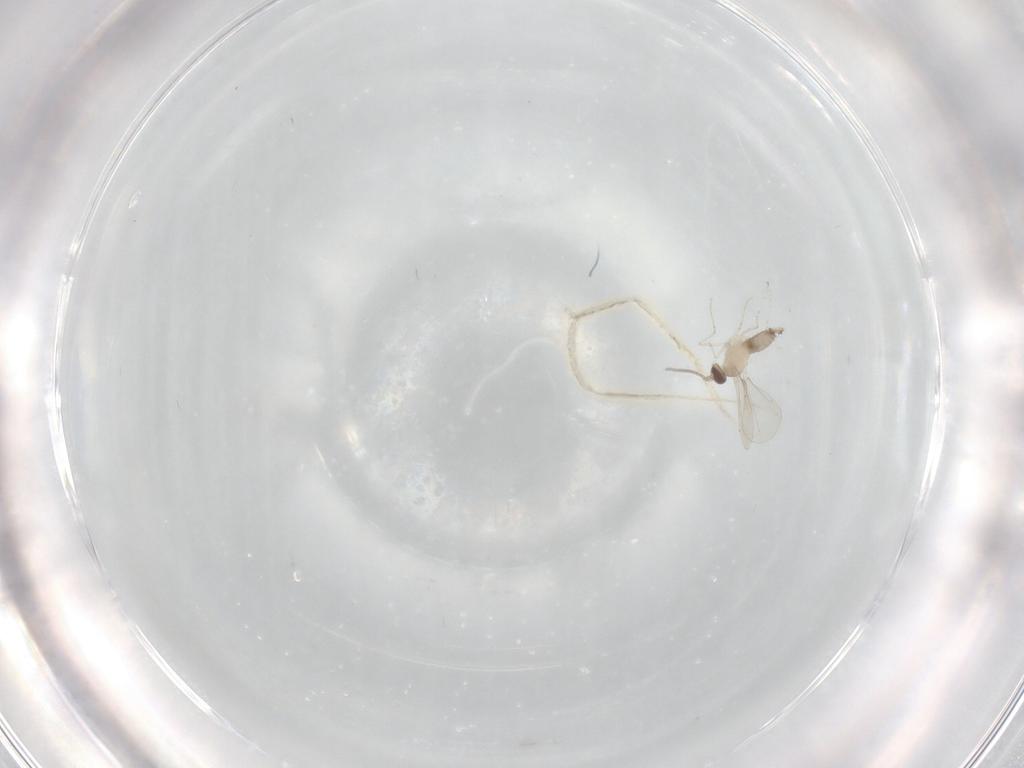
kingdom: Animalia
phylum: Arthropoda
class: Insecta
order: Diptera
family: Cecidomyiidae
